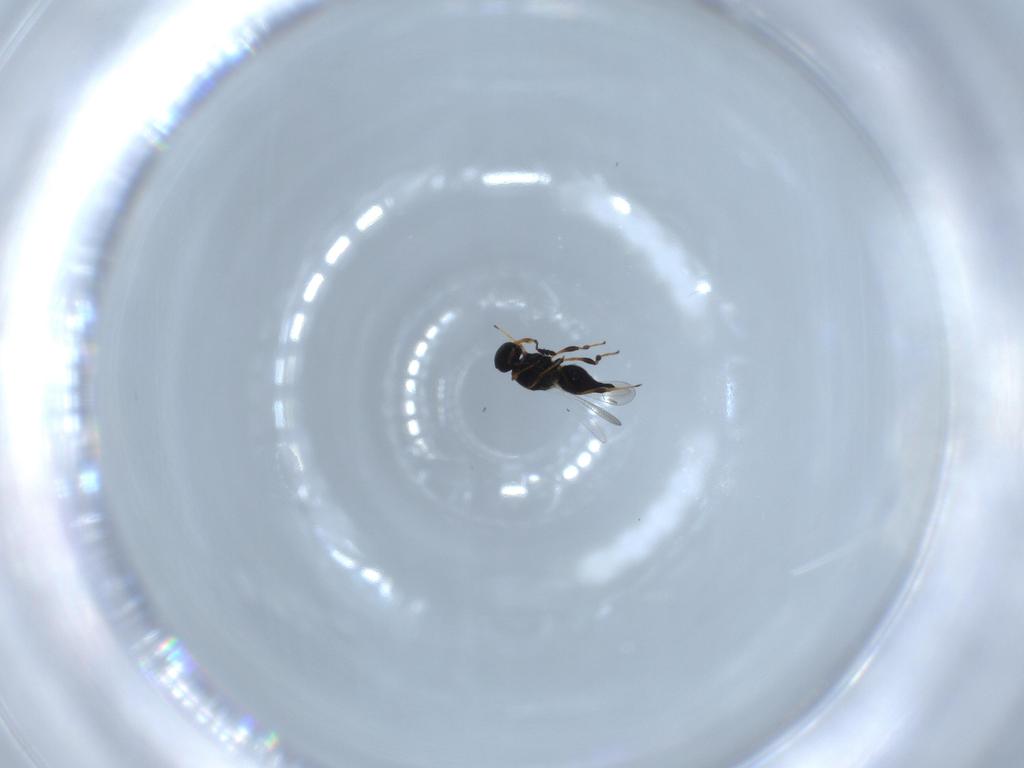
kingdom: Animalia
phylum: Arthropoda
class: Insecta
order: Hymenoptera
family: Platygastridae
